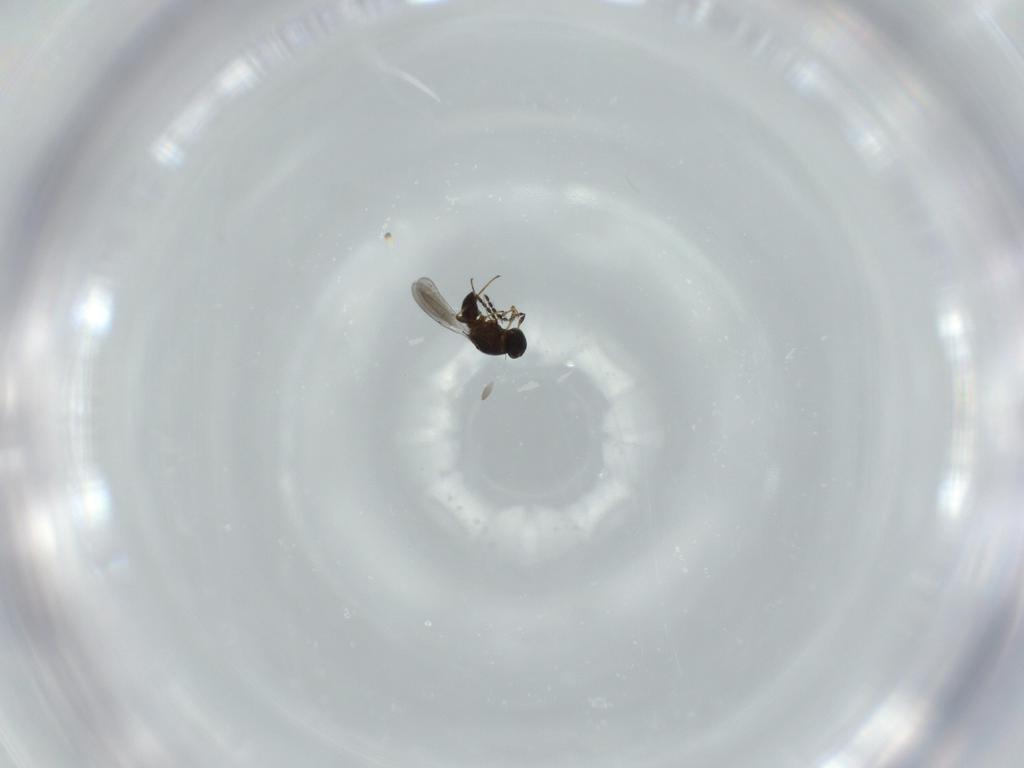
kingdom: Animalia
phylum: Arthropoda
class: Insecta
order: Hymenoptera
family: Platygastridae
